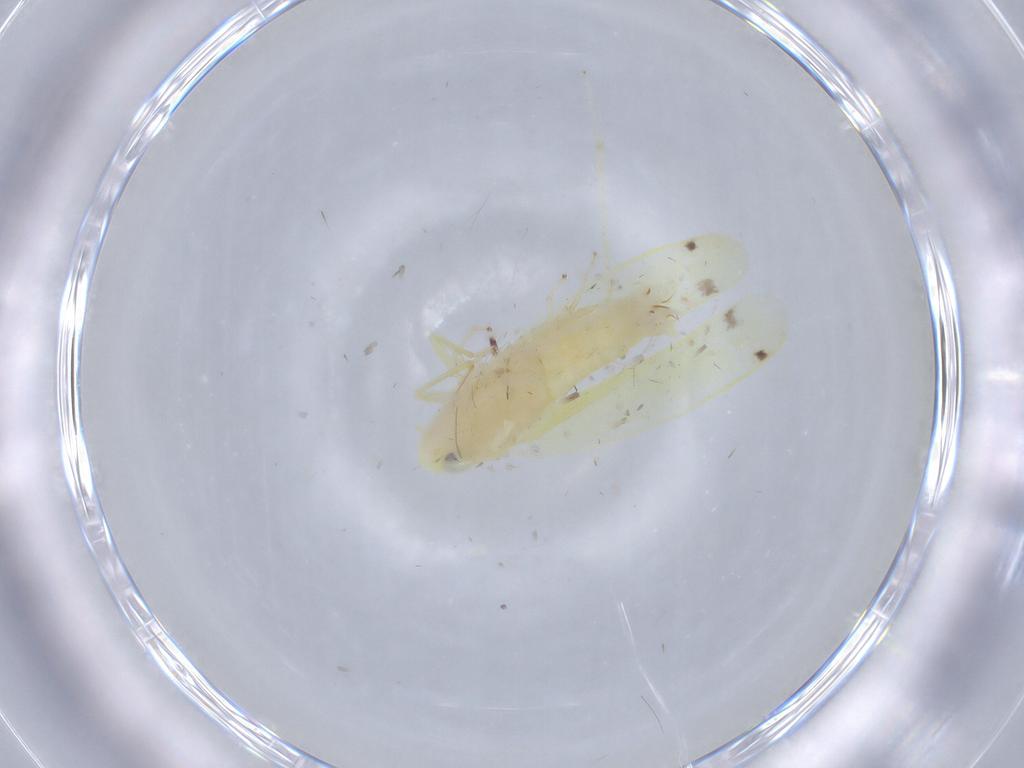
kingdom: Animalia
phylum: Arthropoda
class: Insecta
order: Hemiptera
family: Cicadellidae
